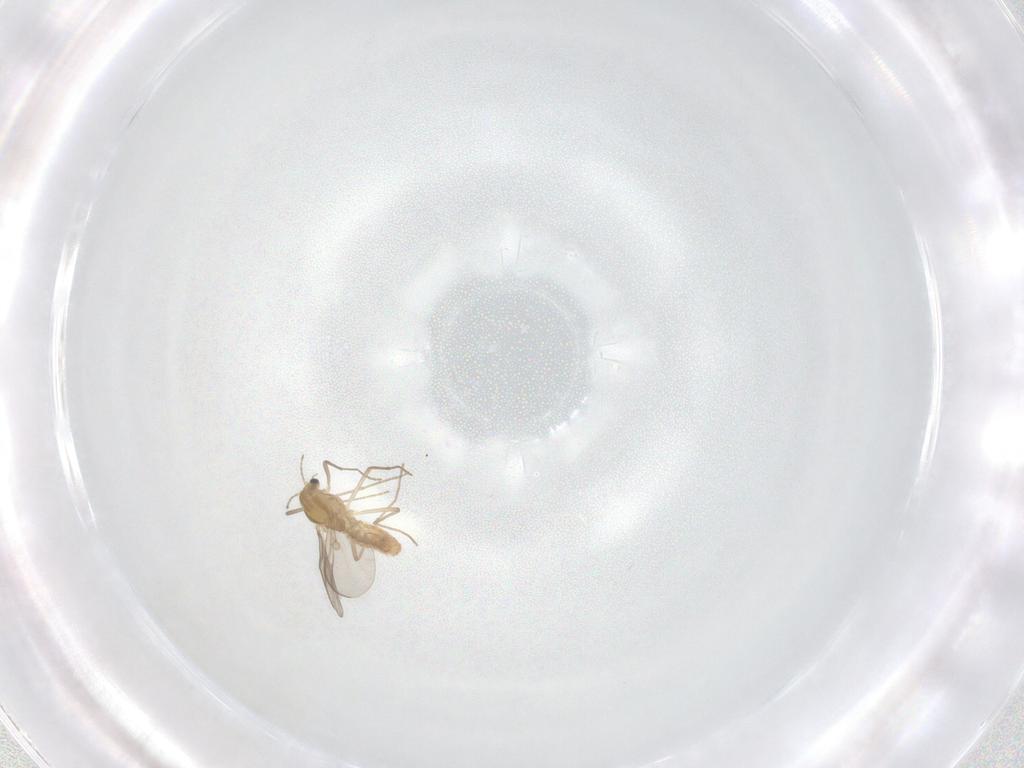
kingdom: Animalia
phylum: Arthropoda
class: Insecta
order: Diptera
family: Chironomidae
